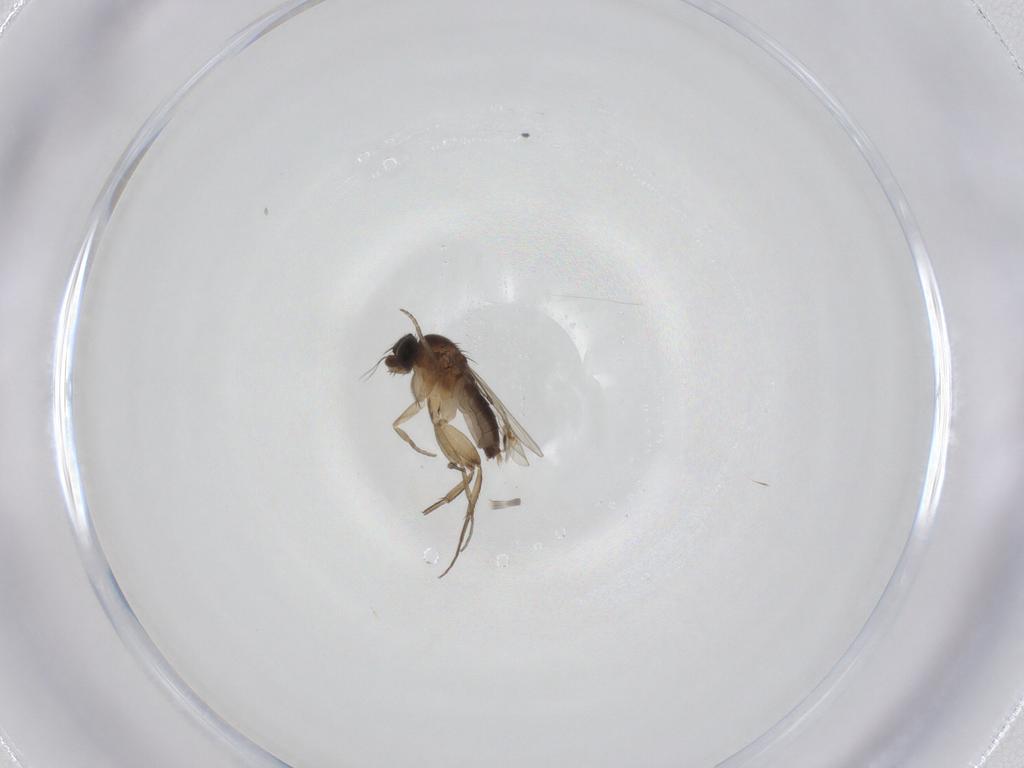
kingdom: Animalia
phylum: Arthropoda
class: Insecta
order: Diptera
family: Phoridae
